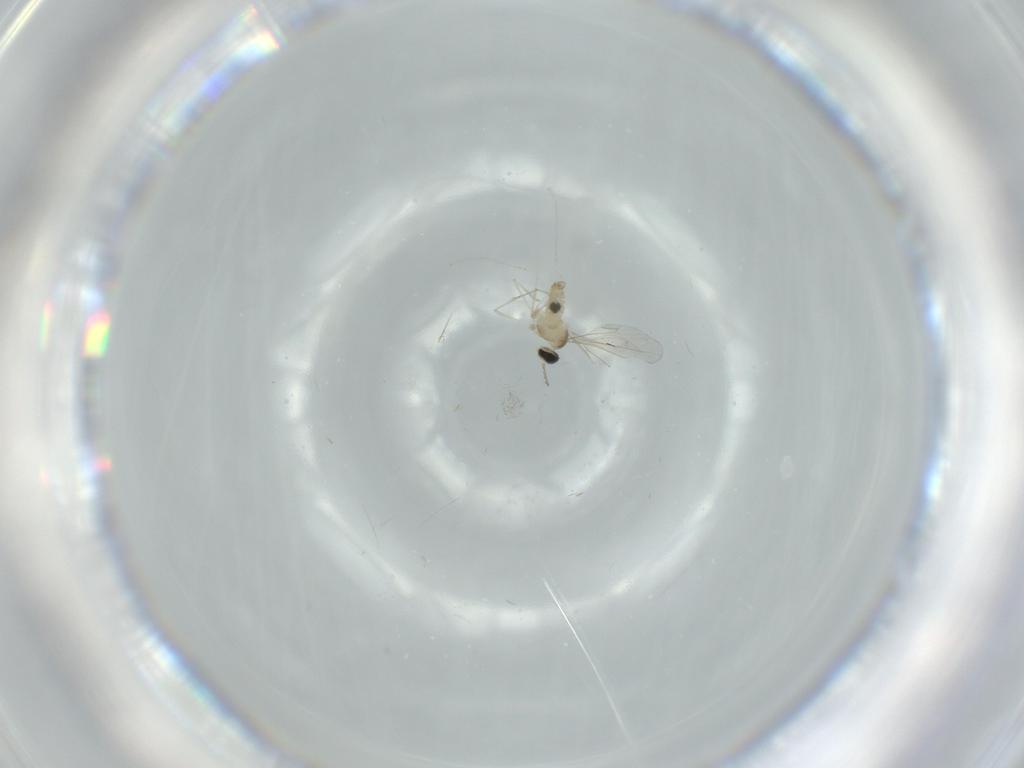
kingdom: Animalia
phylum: Arthropoda
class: Insecta
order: Diptera
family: Cecidomyiidae
